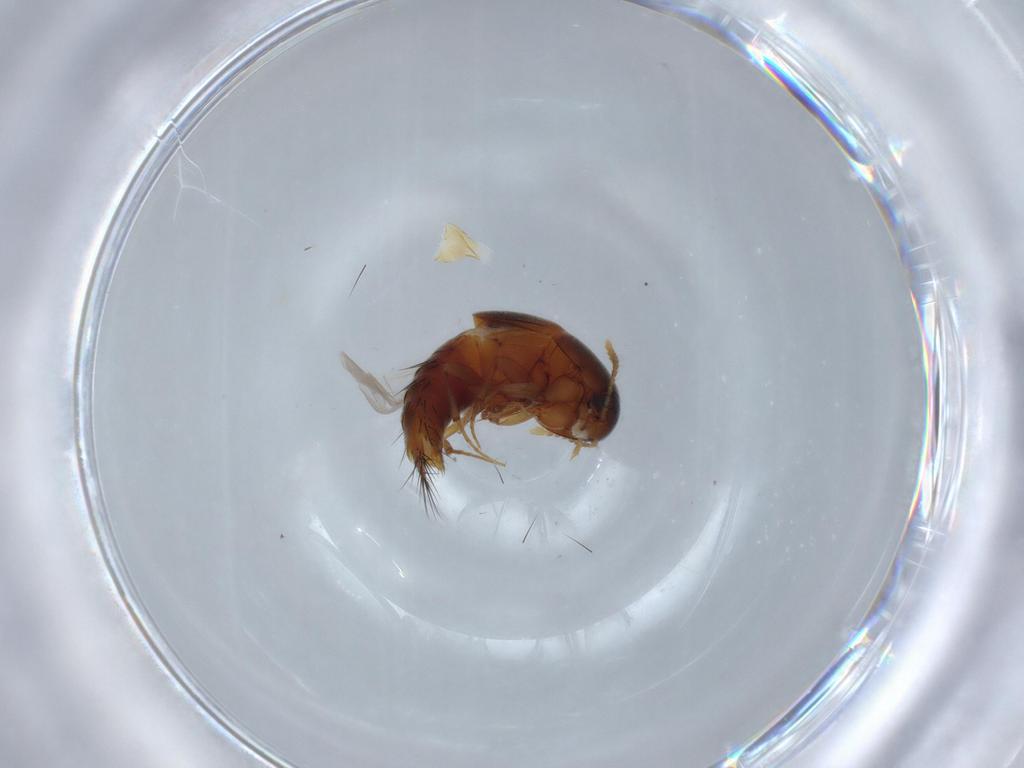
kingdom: Animalia
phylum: Arthropoda
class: Insecta
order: Coleoptera
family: Staphylinidae
